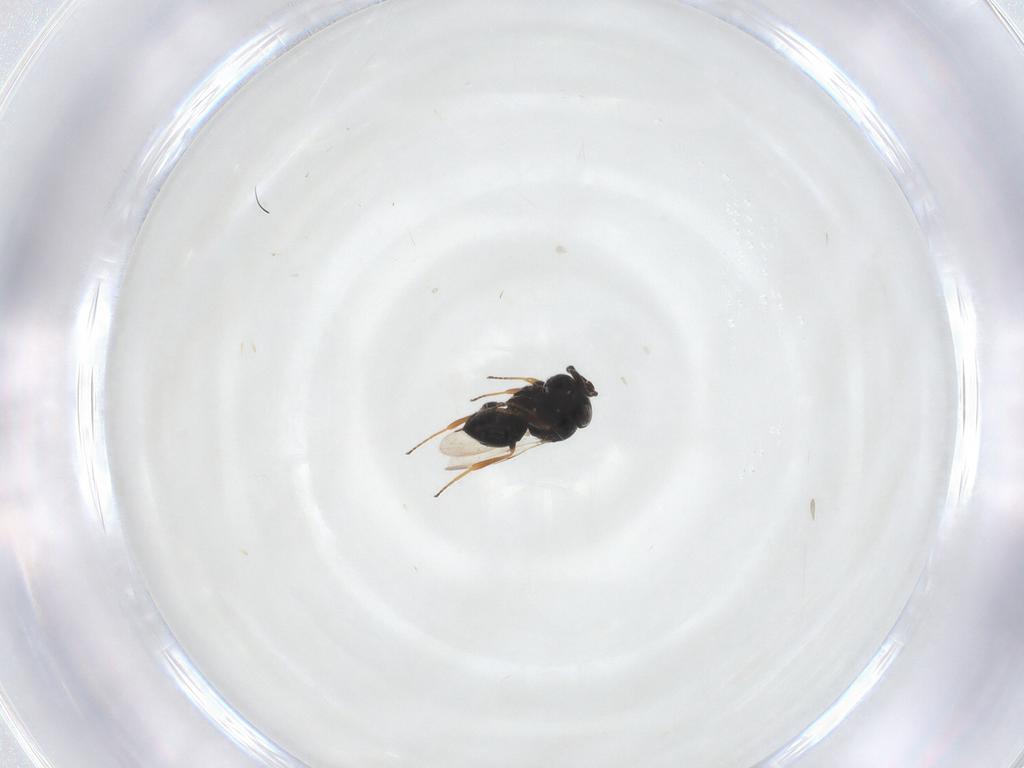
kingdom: Animalia
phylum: Arthropoda
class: Insecta
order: Hymenoptera
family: Scelionidae
